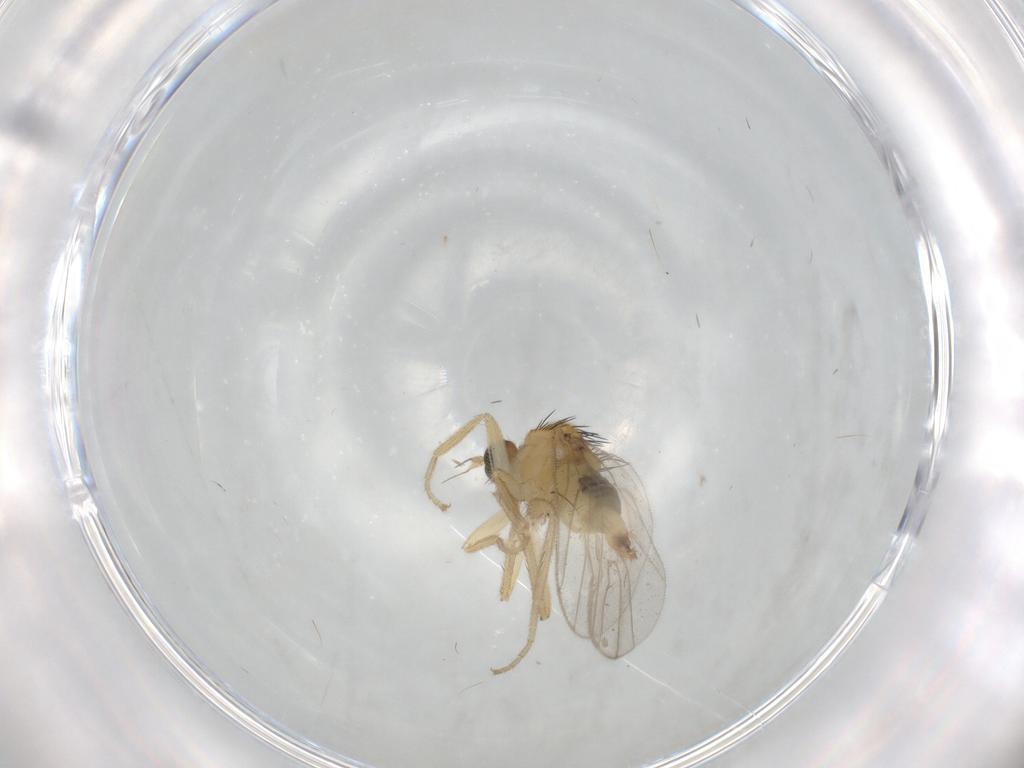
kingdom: Animalia
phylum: Arthropoda
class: Insecta
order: Diptera
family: Hybotidae
